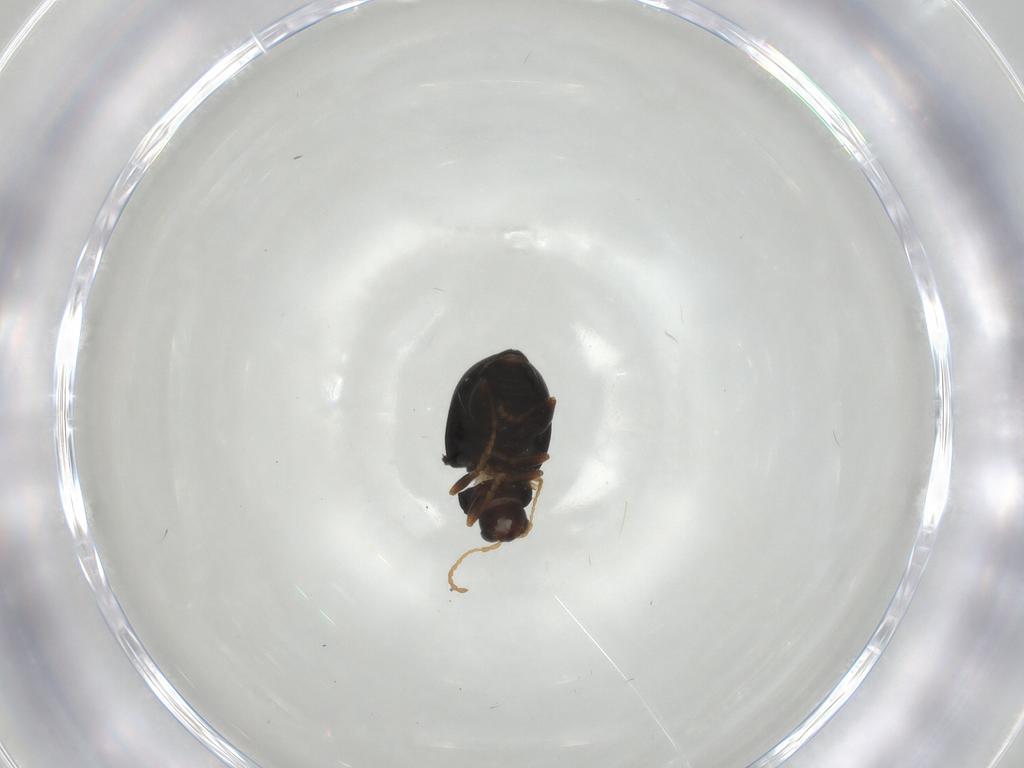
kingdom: Animalia
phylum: Arthropoda
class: Insecta
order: Coleoptera
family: Chrysomelidae
